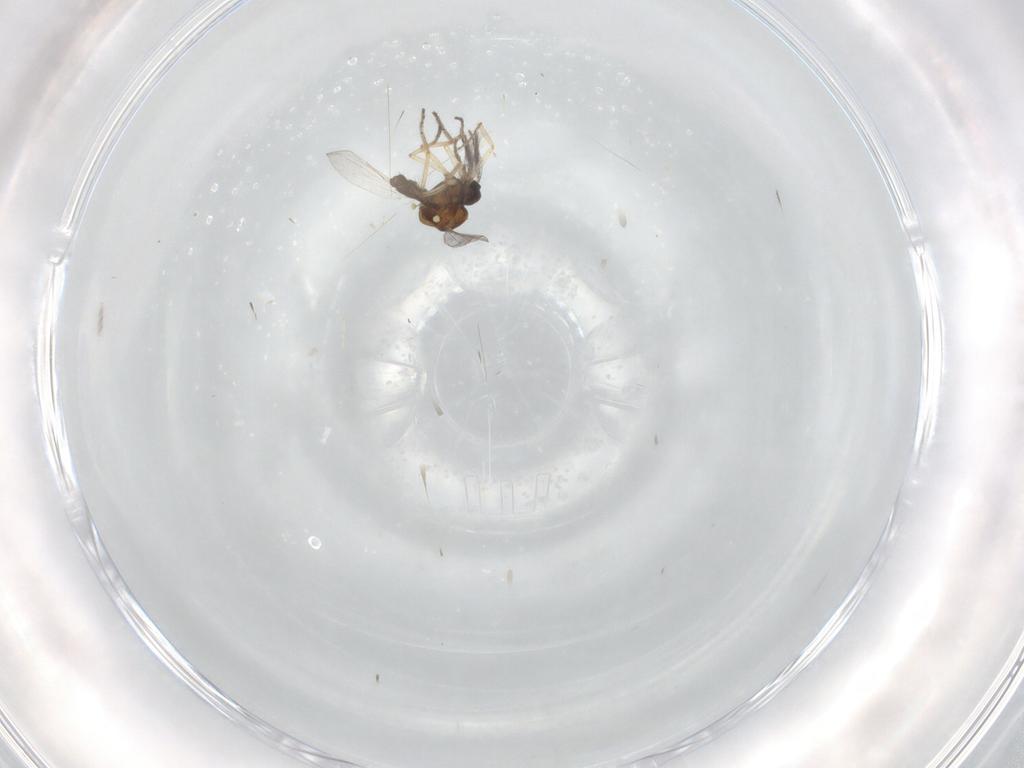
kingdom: Animalia
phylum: Arthropoda
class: Insecta
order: Diptera
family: Ceratopogonidae
